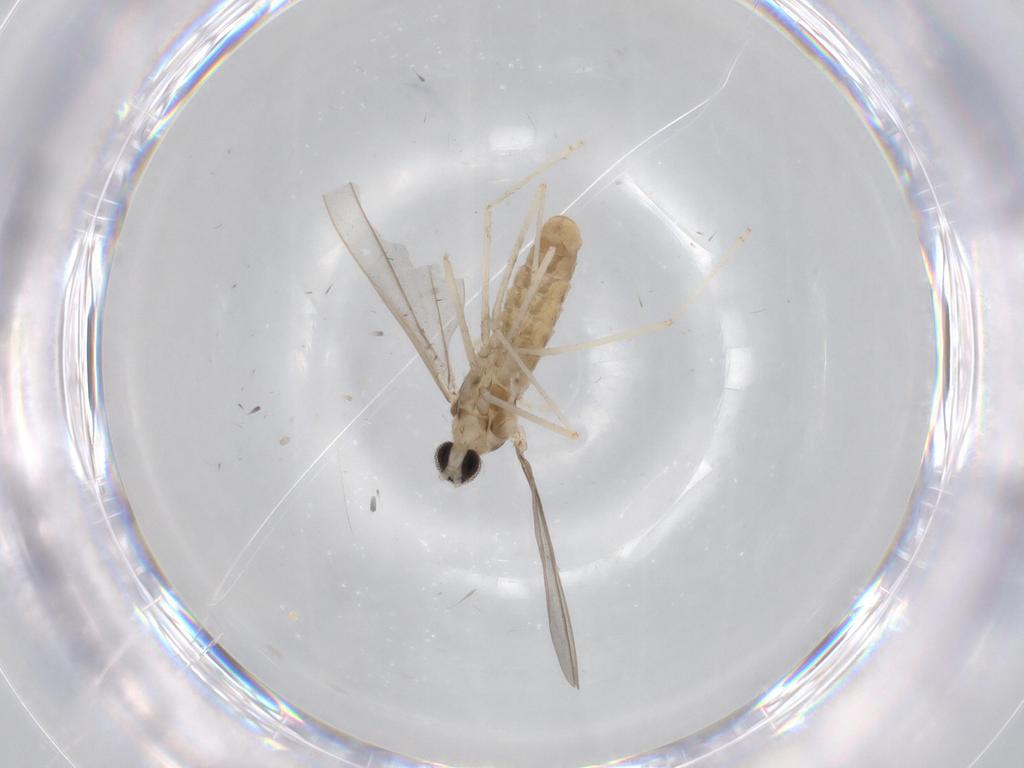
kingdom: Animalia
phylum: Arthropoda
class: Insecta
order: Diptera
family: Cecidomyiidae
